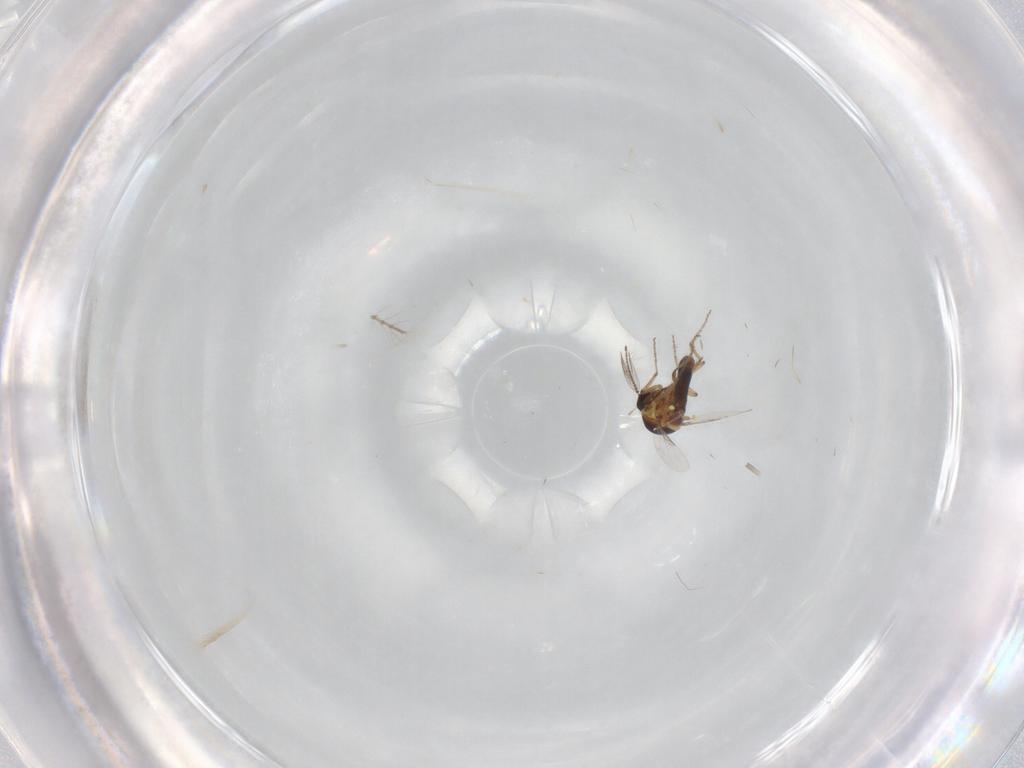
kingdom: Animalia
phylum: Arthropoda
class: Insecta
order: Diptera
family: Ceratopogonidae
